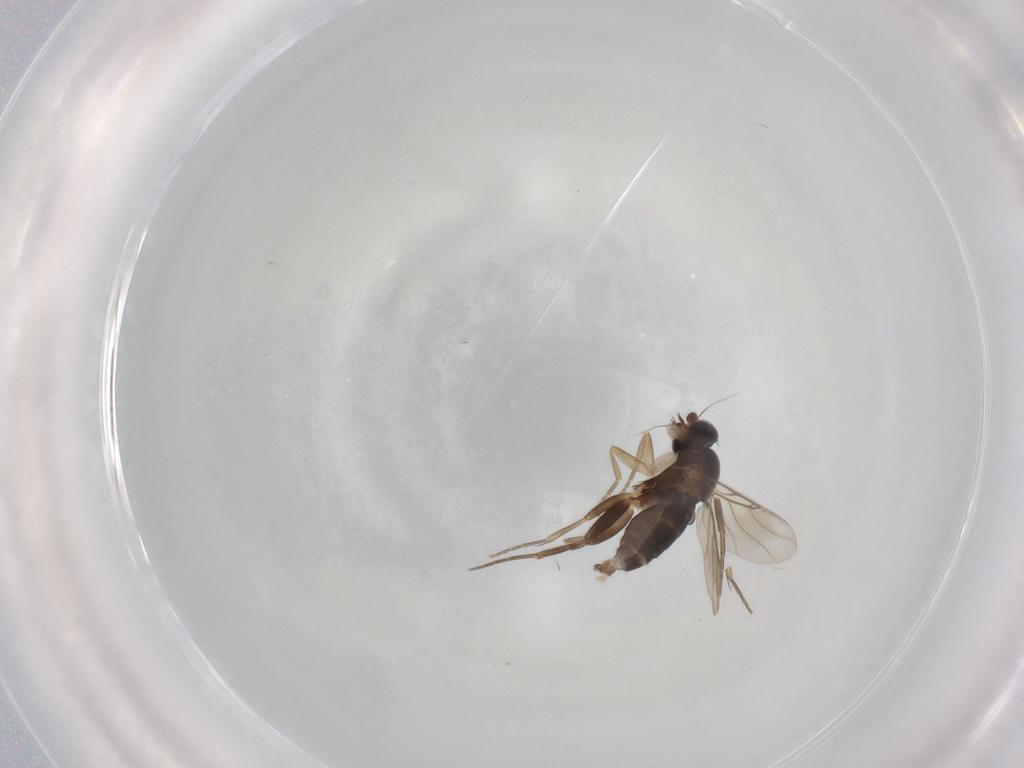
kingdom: Animalia
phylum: Arthropoda
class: Insecta
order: Diptera
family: Phoridae
